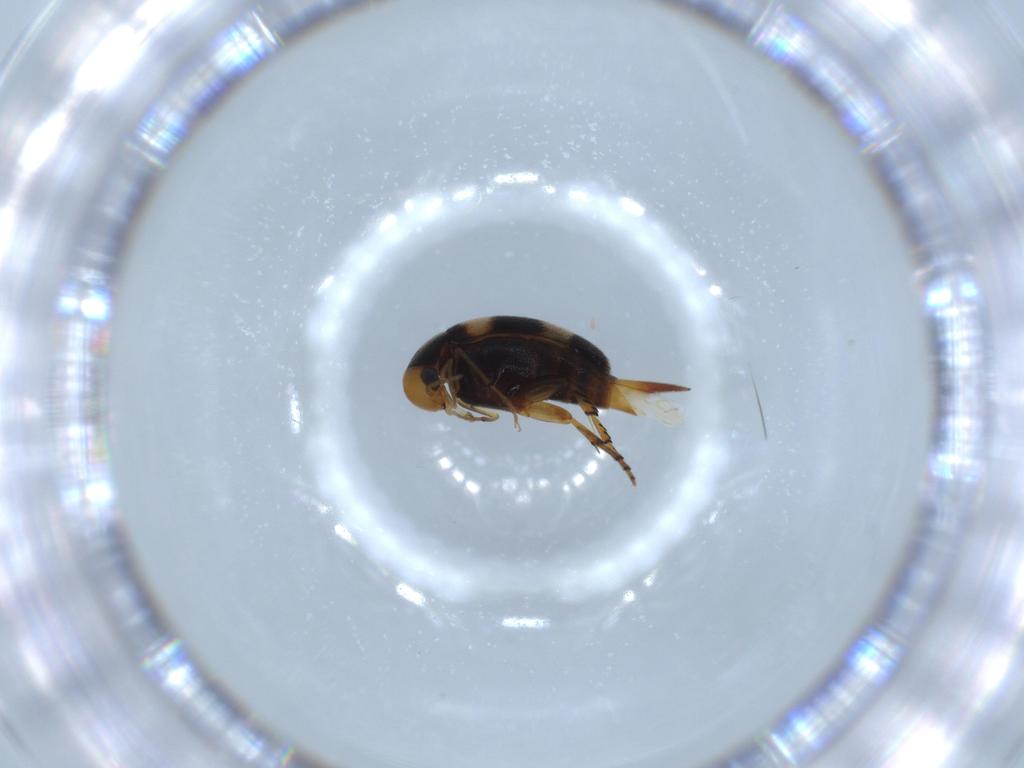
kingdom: Animalia
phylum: Arthropoda
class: Insecta
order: Coleoptera
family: Mordellidae
